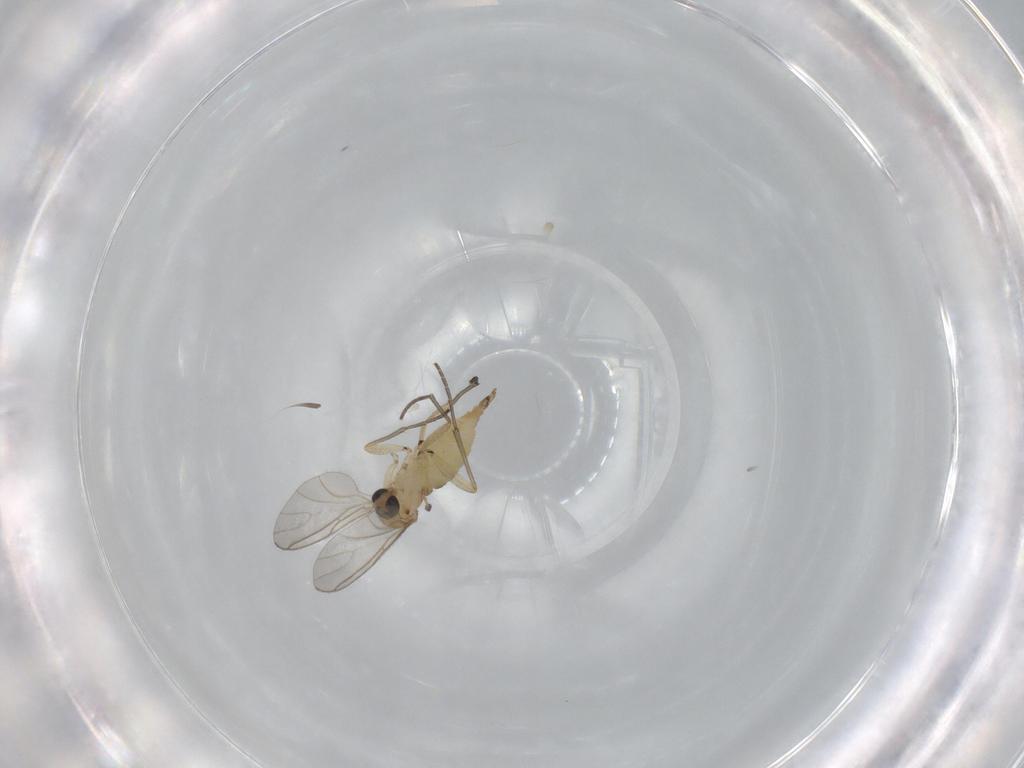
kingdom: Animalia
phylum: Arthropoda
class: Insecta
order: Diptera
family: Sciaridae
